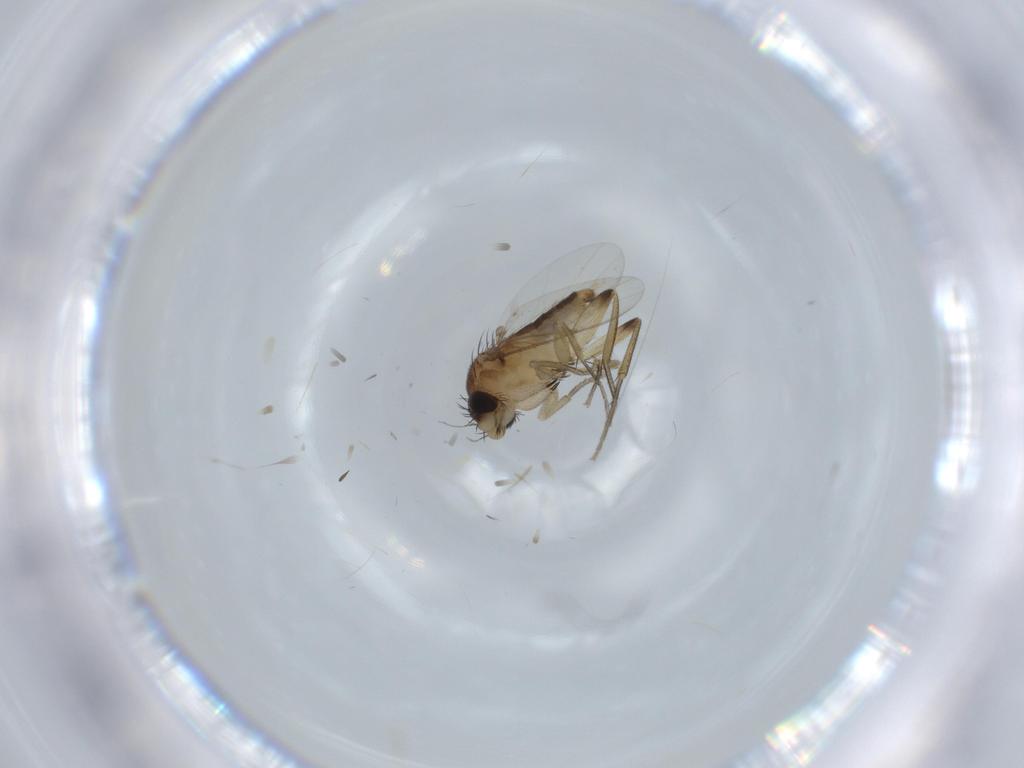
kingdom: Animalia
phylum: Arthropoda
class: Insecta
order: Diptera
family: Phoridae
